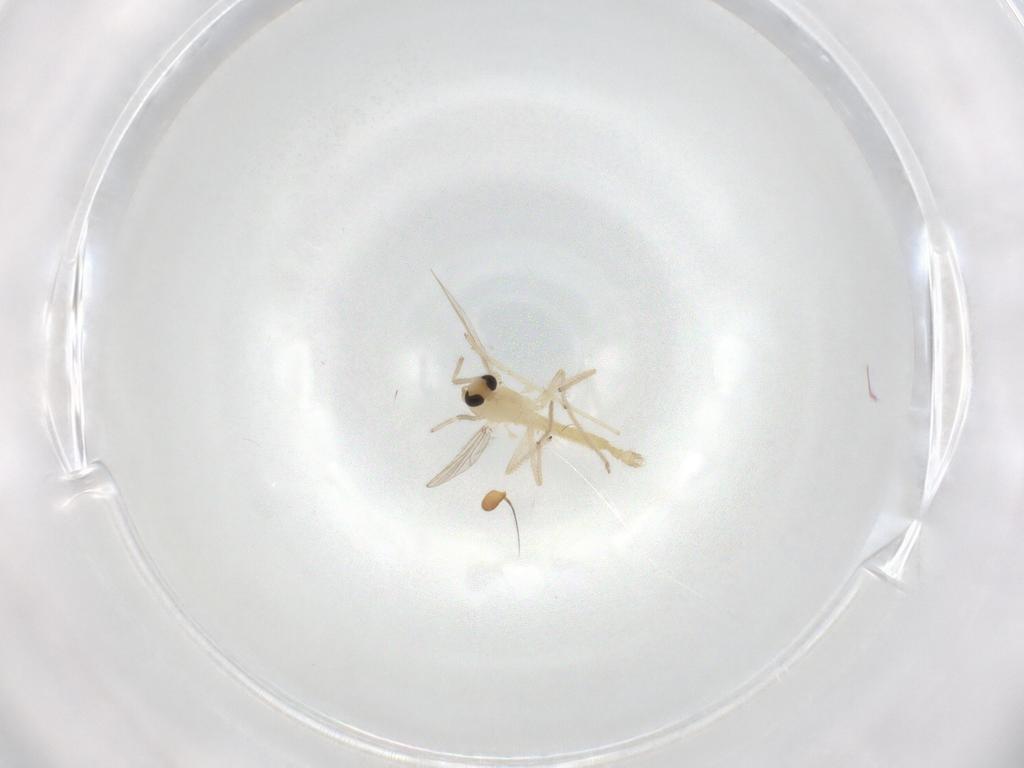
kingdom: Animalia
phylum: Arthropoda
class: Insecta
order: Diptera
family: Chironomidae
